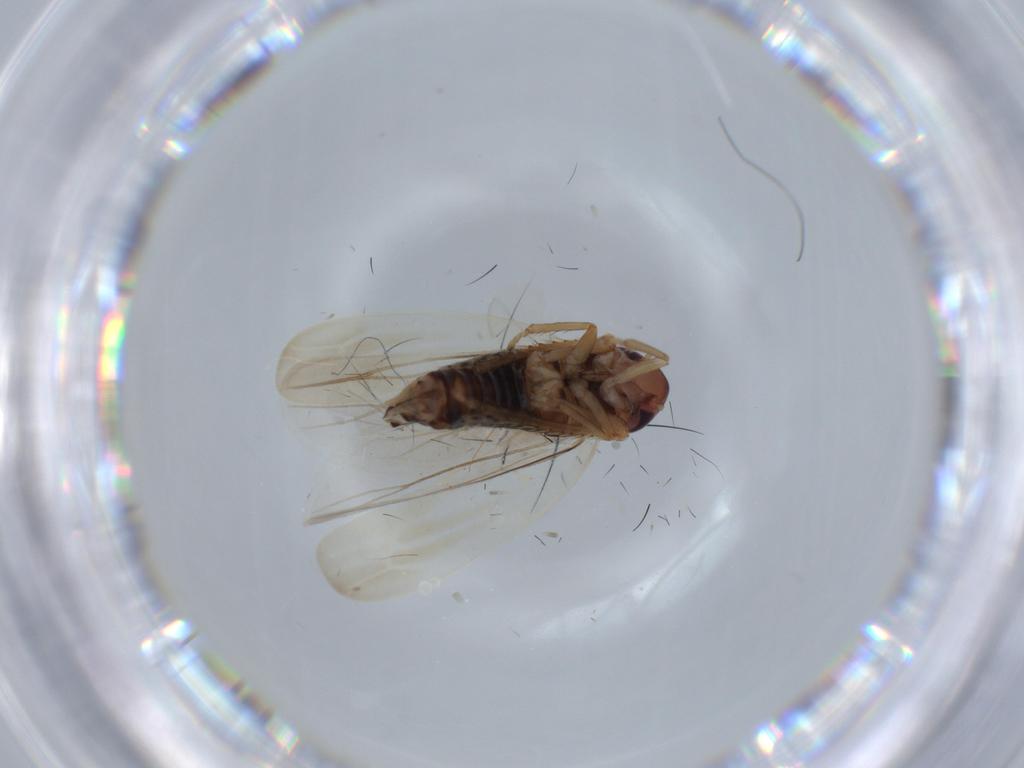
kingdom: Animalia
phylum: Arthropoda
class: Insecta
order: Hemiptera
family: Cicadellidae
